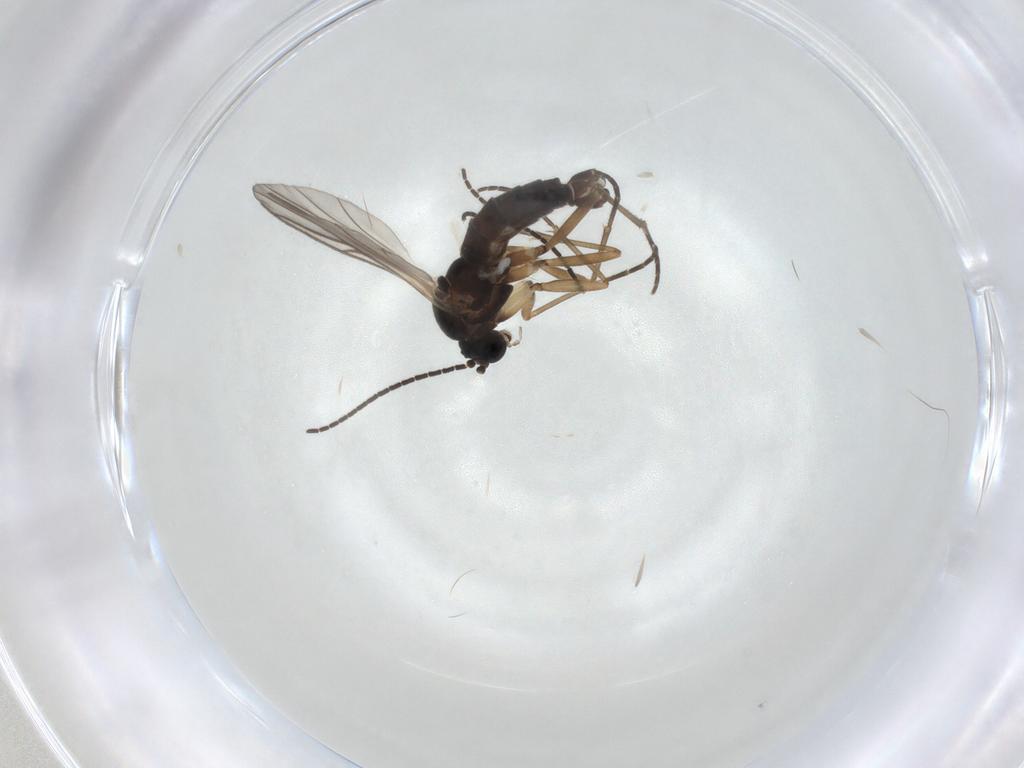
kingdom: Animalia
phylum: Arthropoda
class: Insecta
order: Diptera
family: Sciaridae
